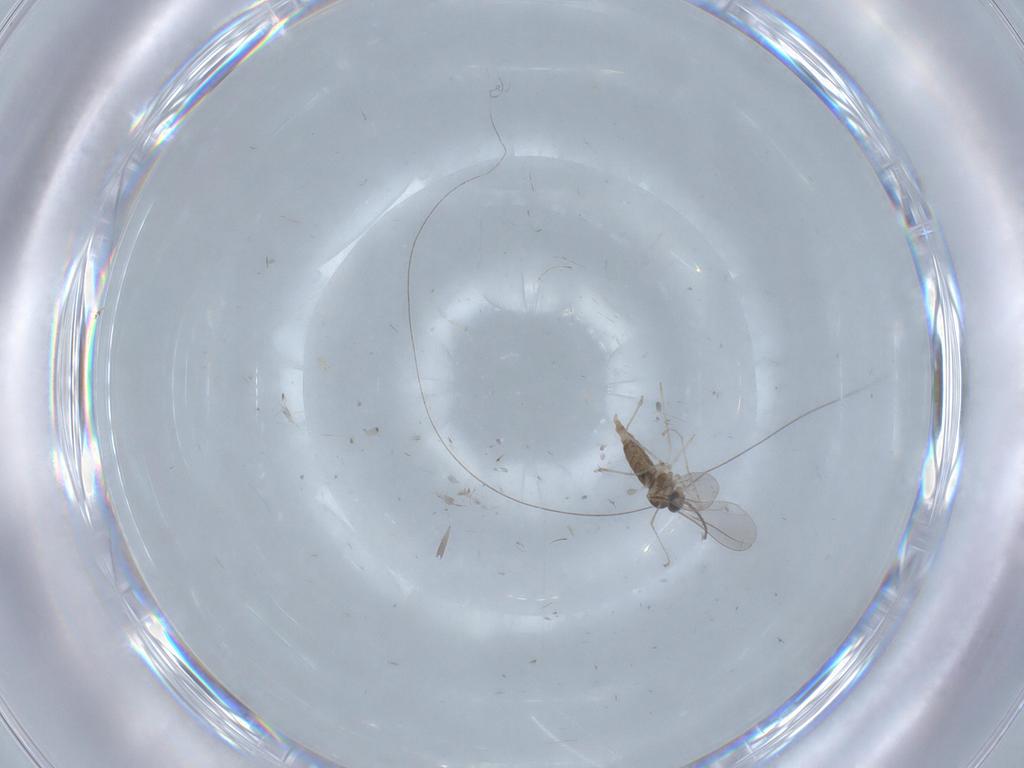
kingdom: Animalia
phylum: Arthropoda
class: Insecta
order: Diptera
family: Ceratopogonidae
